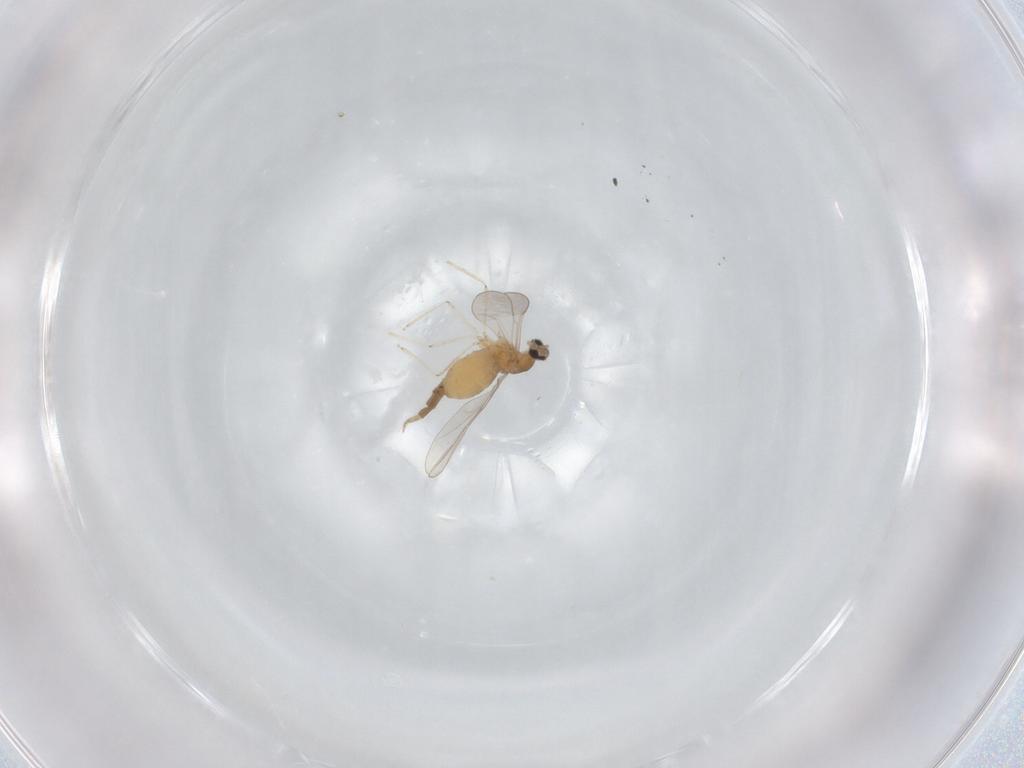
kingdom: Animalia
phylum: Arthropoda
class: Insecta
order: Diptera
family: Cecidomyiidae
